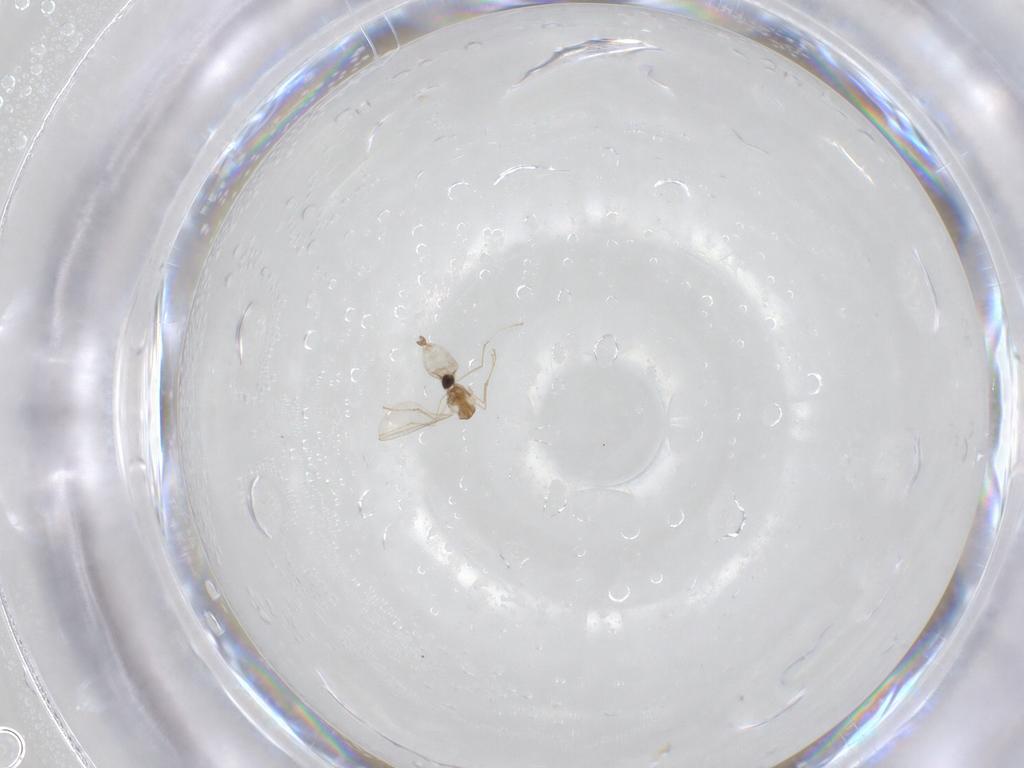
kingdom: Animalia
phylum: Arthropoda
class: Insecta
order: Diptera
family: Cecidomyiidae
